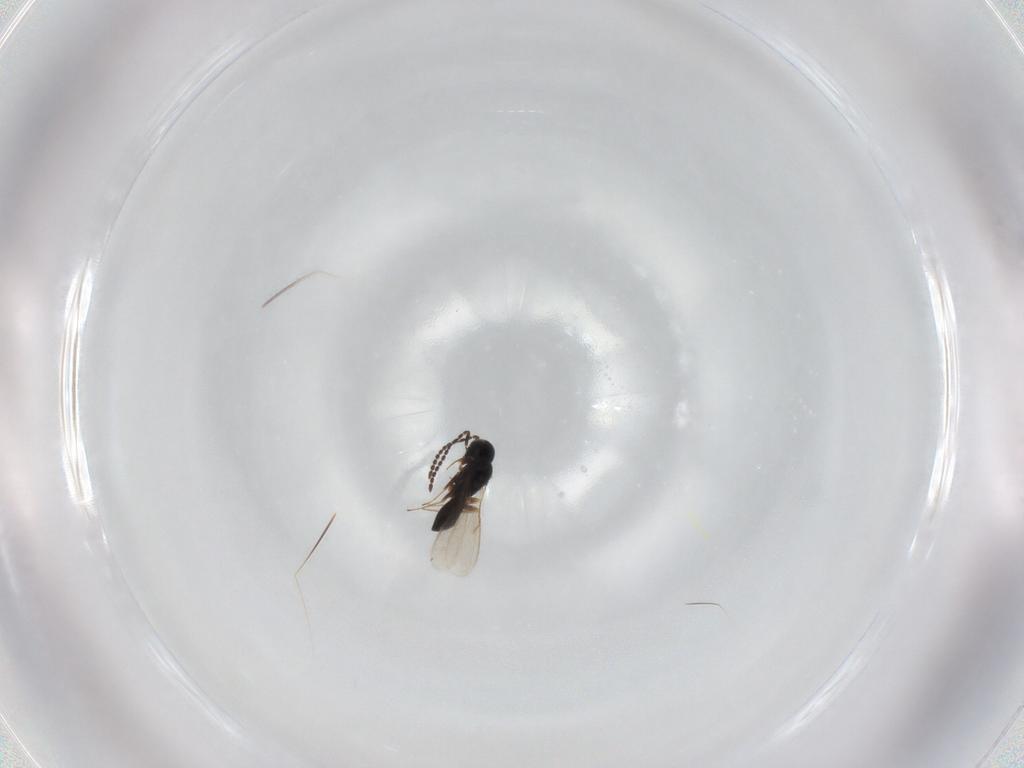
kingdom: Animalia
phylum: Arthropoda
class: Insecta
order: Hymenoptera
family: Scelionidae
